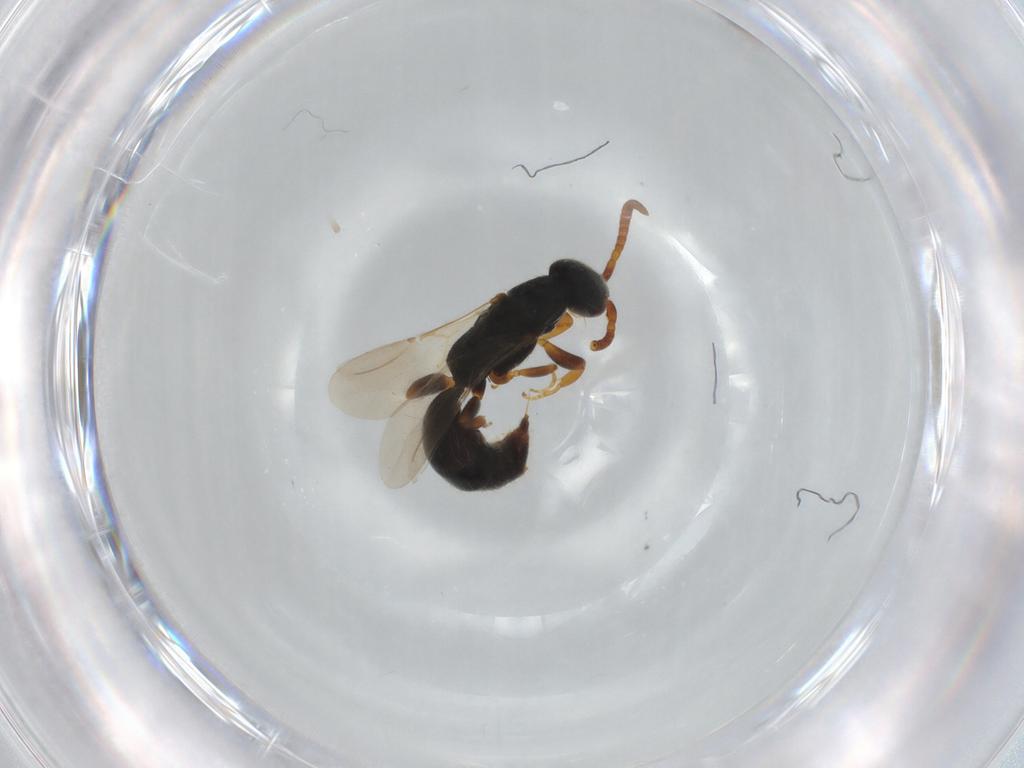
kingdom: Animalia
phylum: Arthropoda
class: Insecta
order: Hymenoptera
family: Bethylidae
